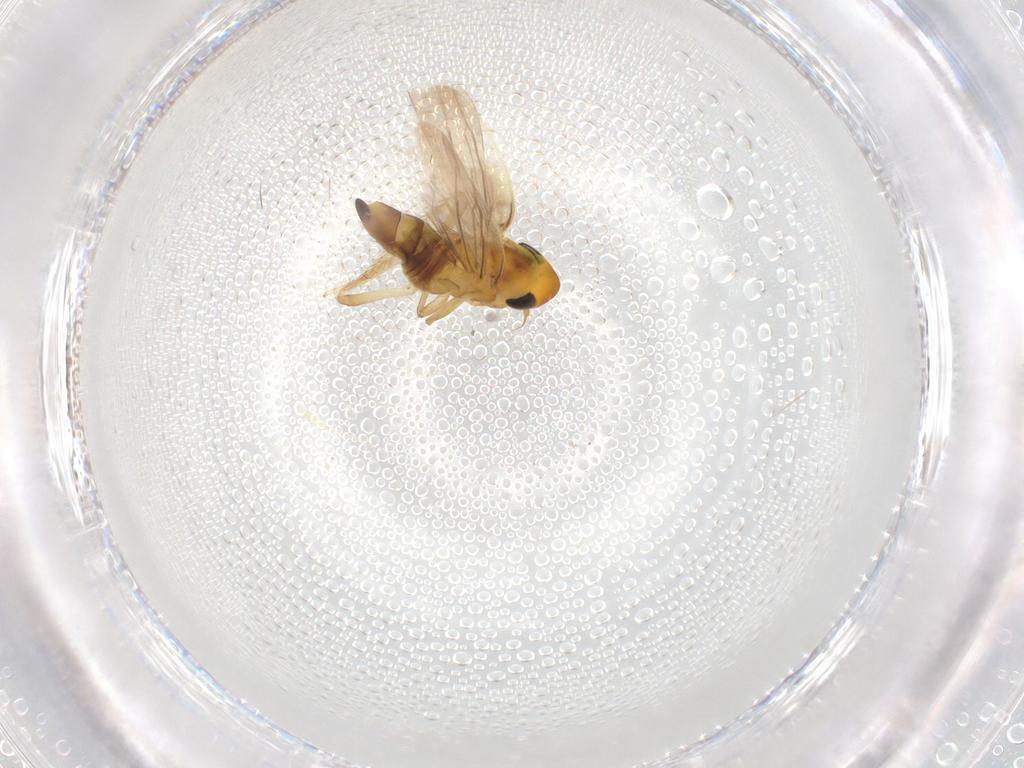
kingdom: Animalia
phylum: Arthropoda
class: Insecta
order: Hemiptera
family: Cicadellidae
